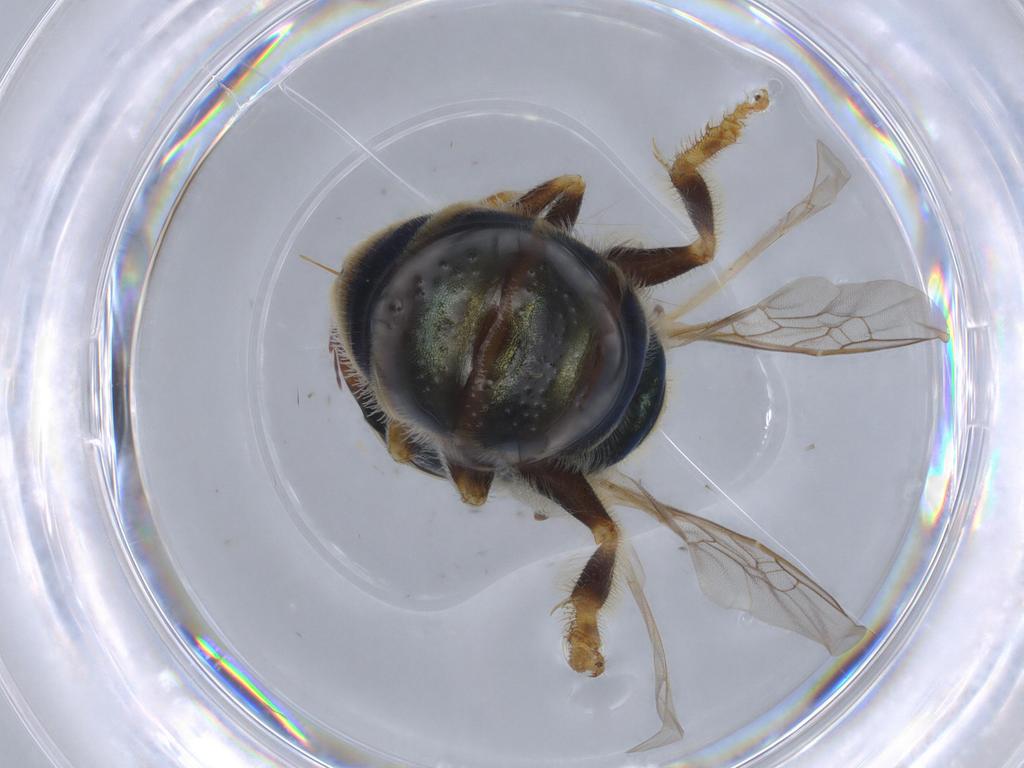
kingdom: Animalia
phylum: Arthropoda
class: Insecta
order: Hymenoptera
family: Halictidae
